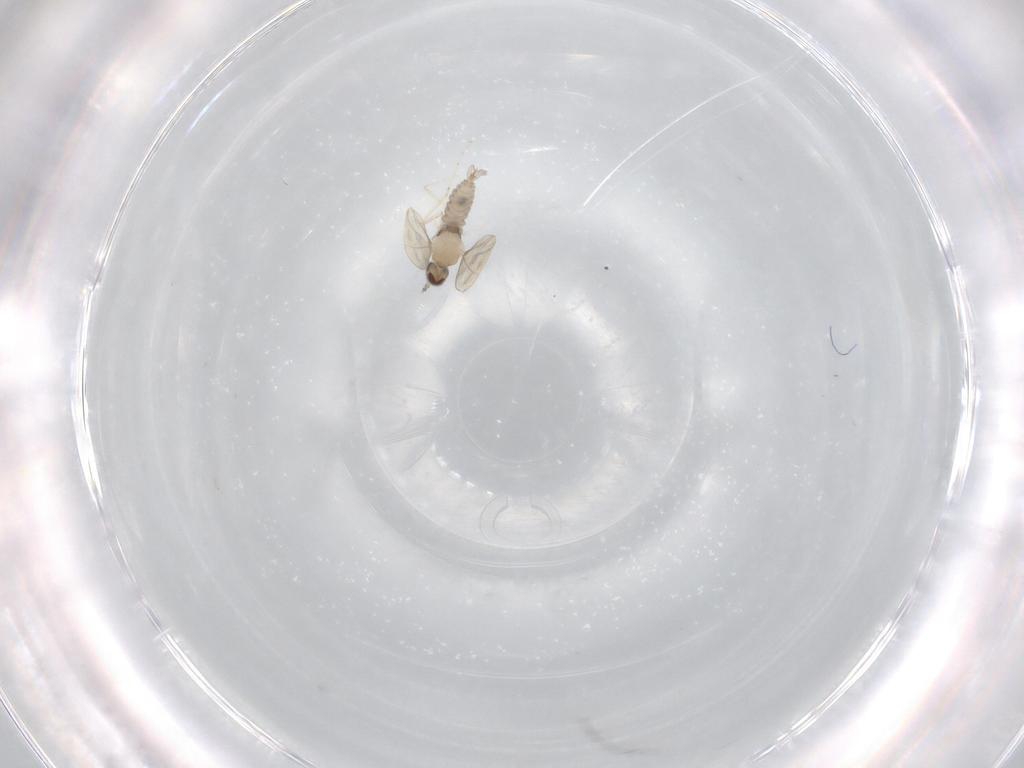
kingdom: Animalia
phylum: Arthropoda
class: Insecta
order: Diptera
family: Cecidomyiidae
